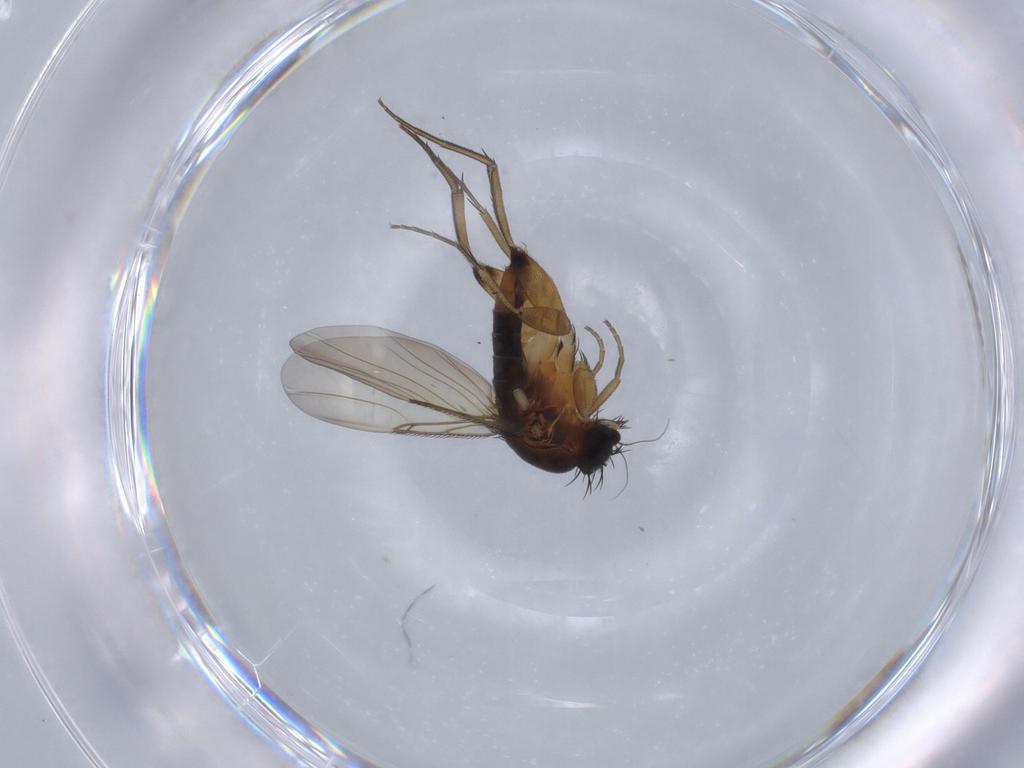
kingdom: Animalia
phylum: Arthropoda
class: Insecta
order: Diptera
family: Phoridae
